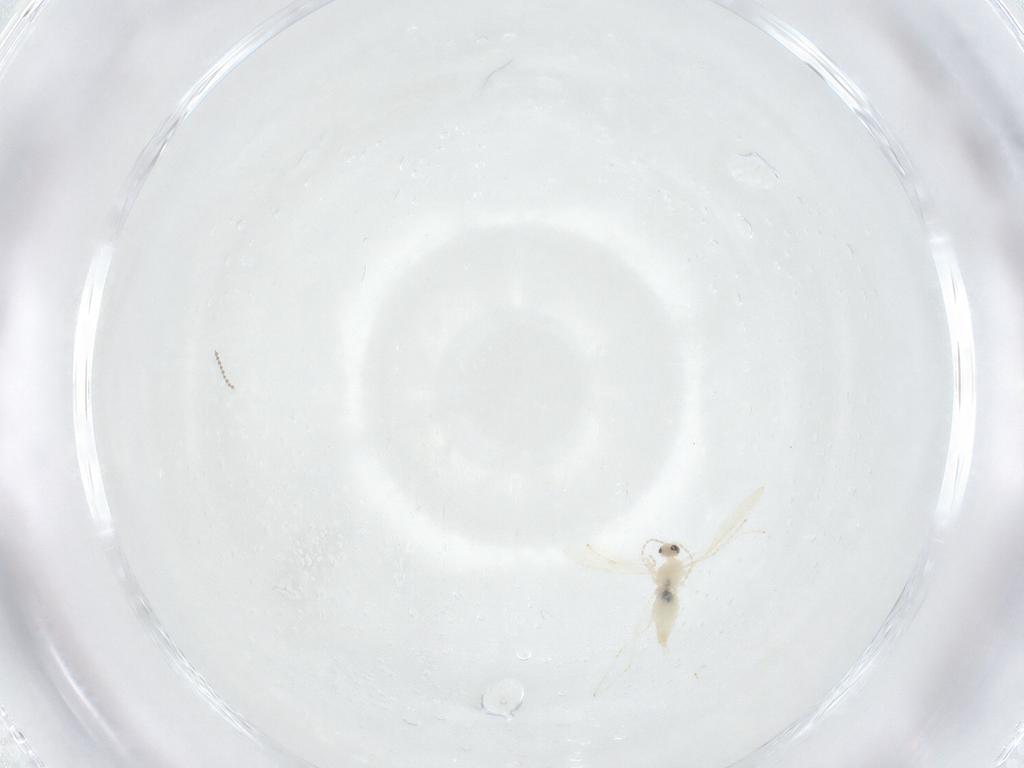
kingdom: Animalia
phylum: Arthropoda
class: Insecta
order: Diptera
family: Cecidomyiidae
